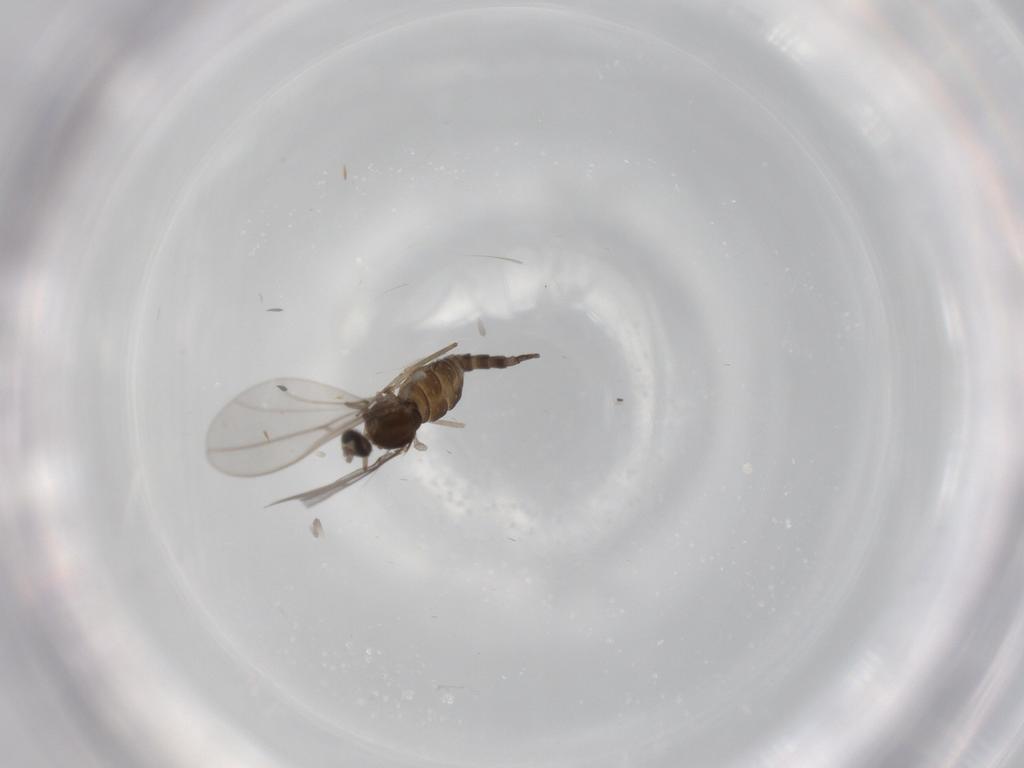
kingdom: Animalia
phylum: Arthropoda
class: Insecta
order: Diptera
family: Cecidomyiidae
